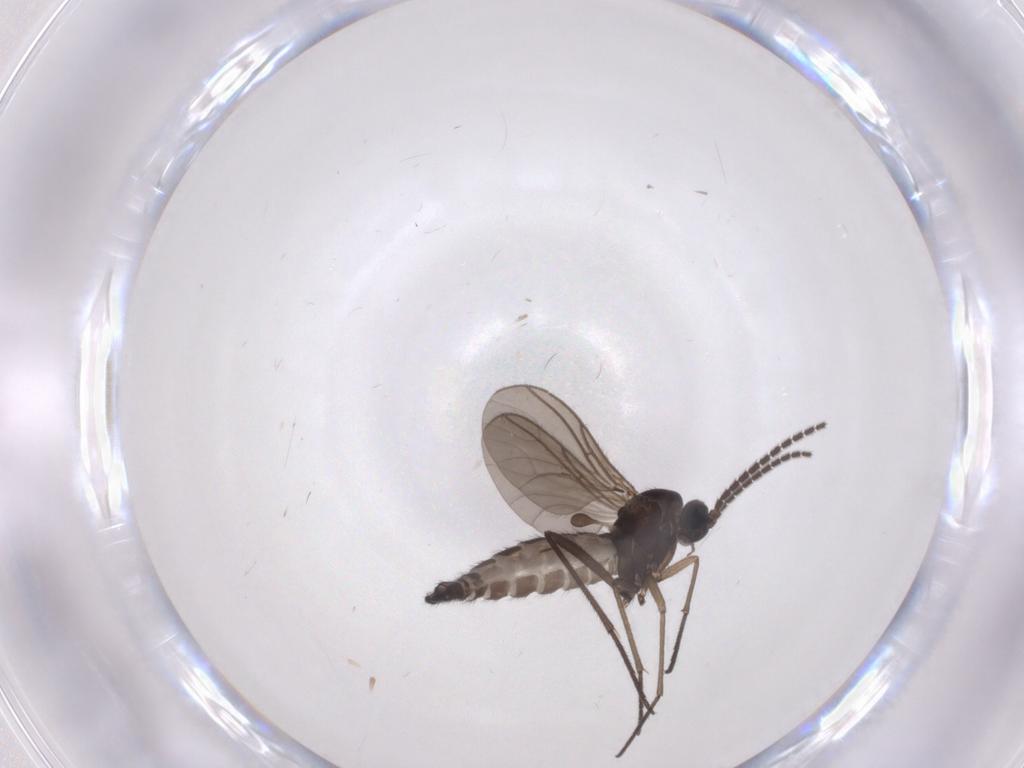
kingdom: Animalia
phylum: Arthropoda
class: Insecta
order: Diptera
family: Sciaridae
